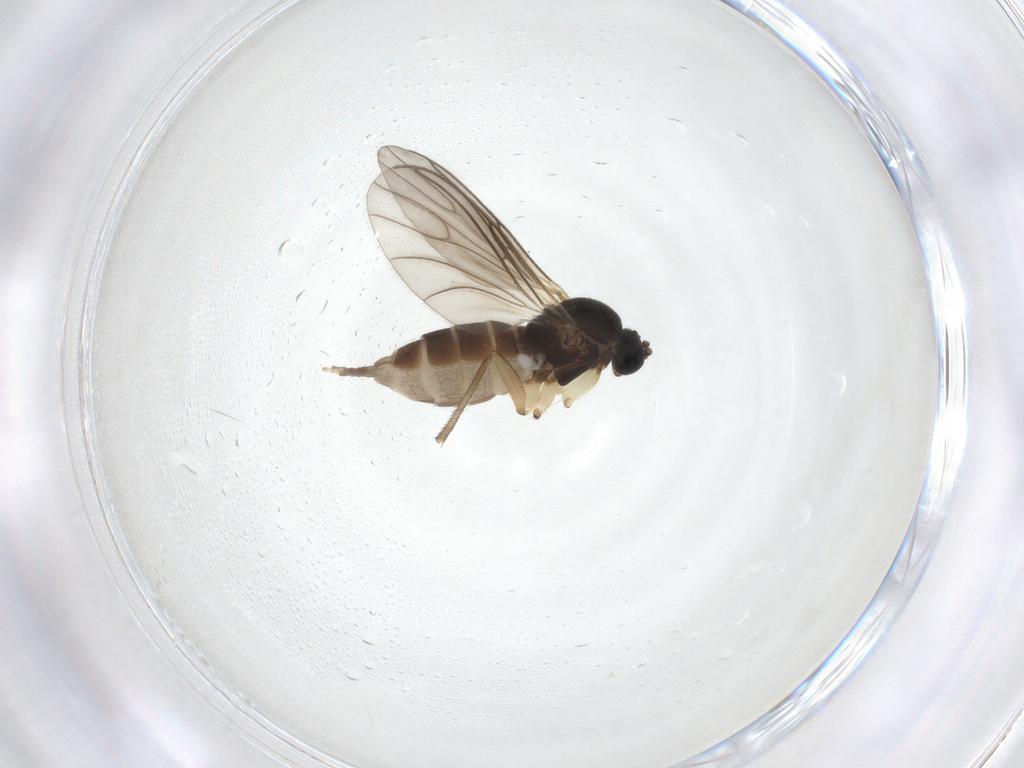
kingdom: Animalia
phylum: Arthropoda
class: Insecta
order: Diptera
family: Sciaridae
